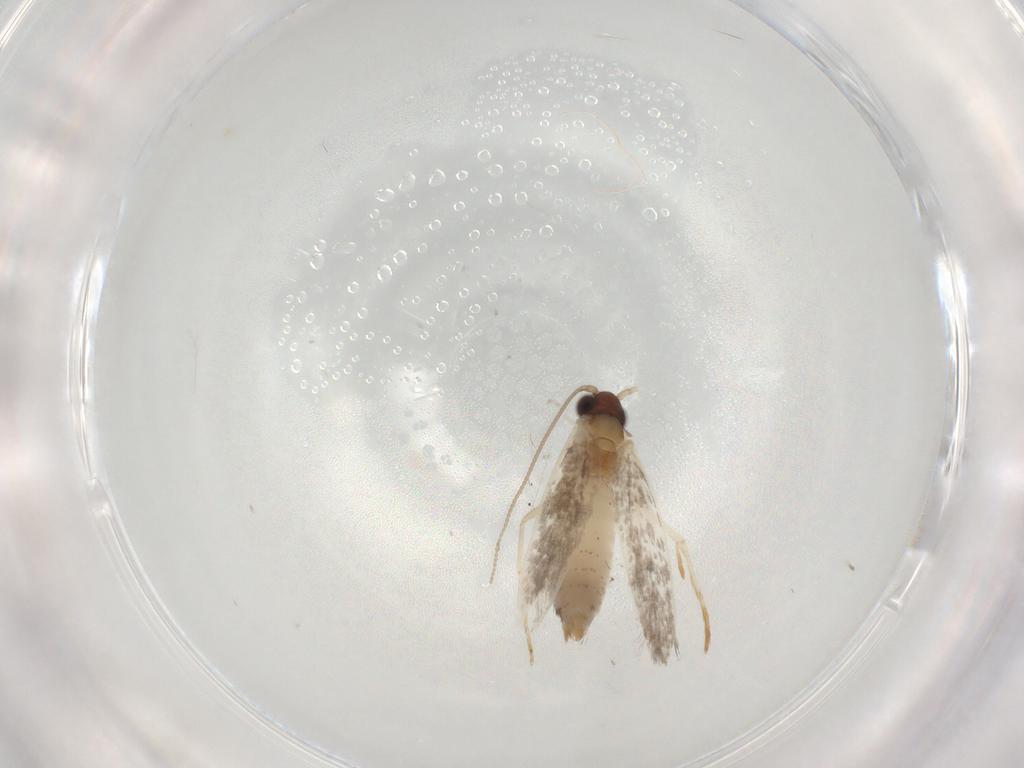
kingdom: Animalia
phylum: Arthropoda
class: Insecta
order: Lepidoptera
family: Tineidae
